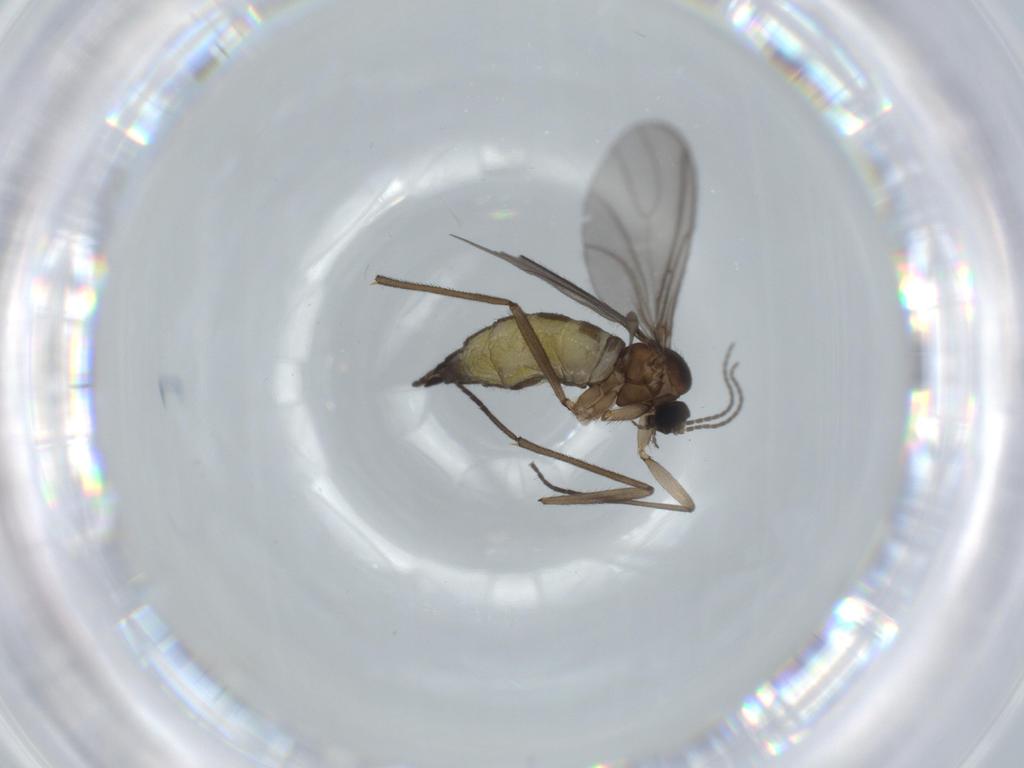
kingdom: Animalia
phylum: Arthropoda
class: Insecta
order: Diptera
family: Sciaridae
